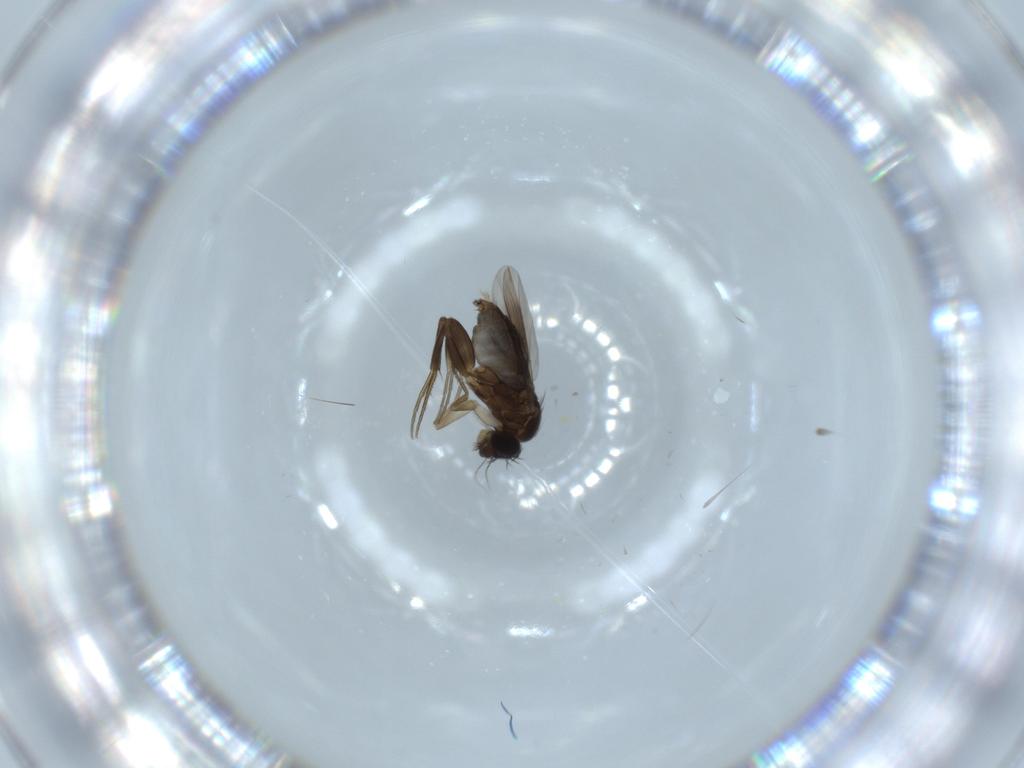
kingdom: Animalia
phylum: Arthropoda
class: Insecta
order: Diptera
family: Phoridae
